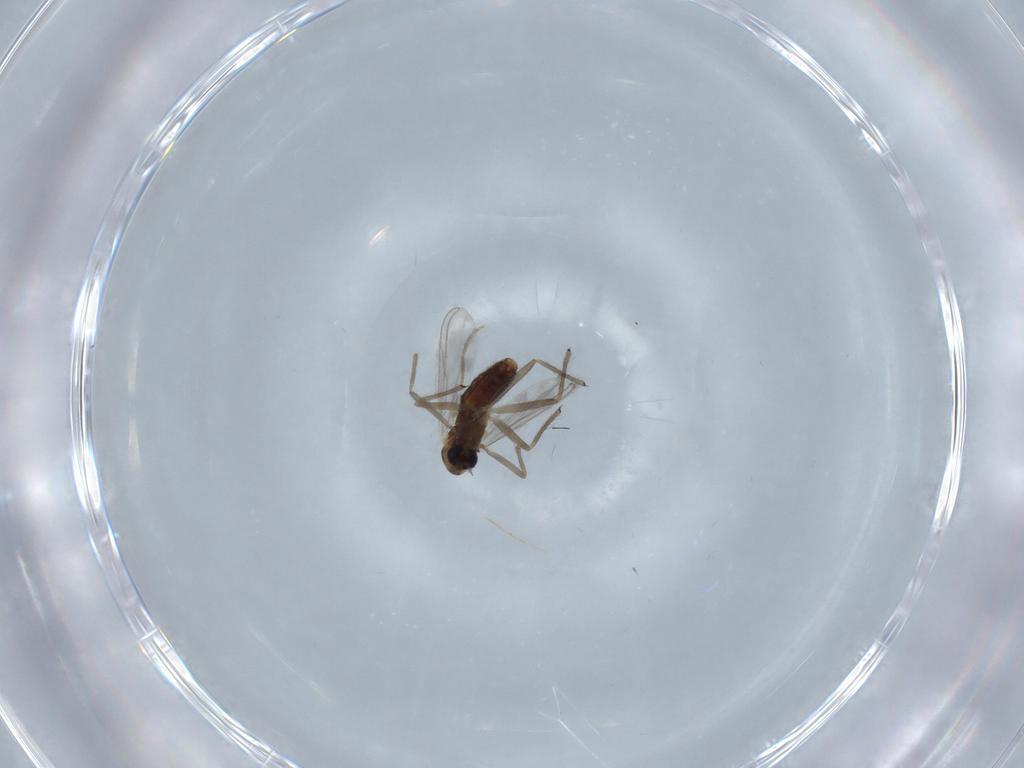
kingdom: Animalia
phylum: Arthropoda
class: Insecta
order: Diptera
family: Chironomidae
